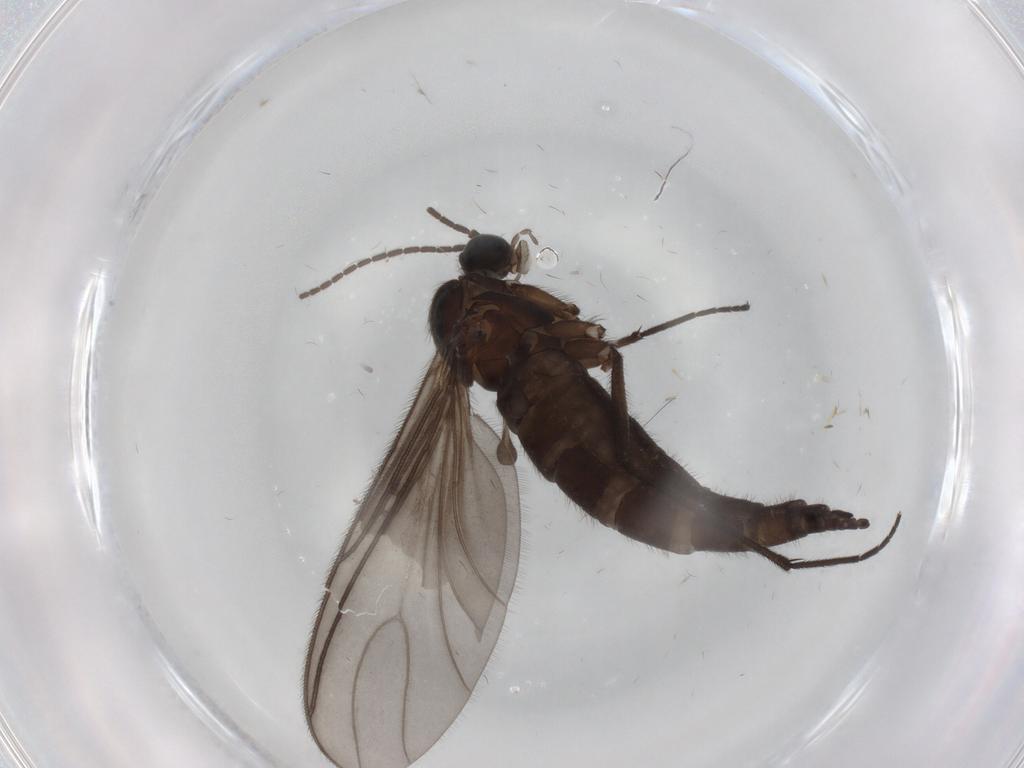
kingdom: Animalia
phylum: Arthropoda
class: Insecta
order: Diptera
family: Sciaridae
